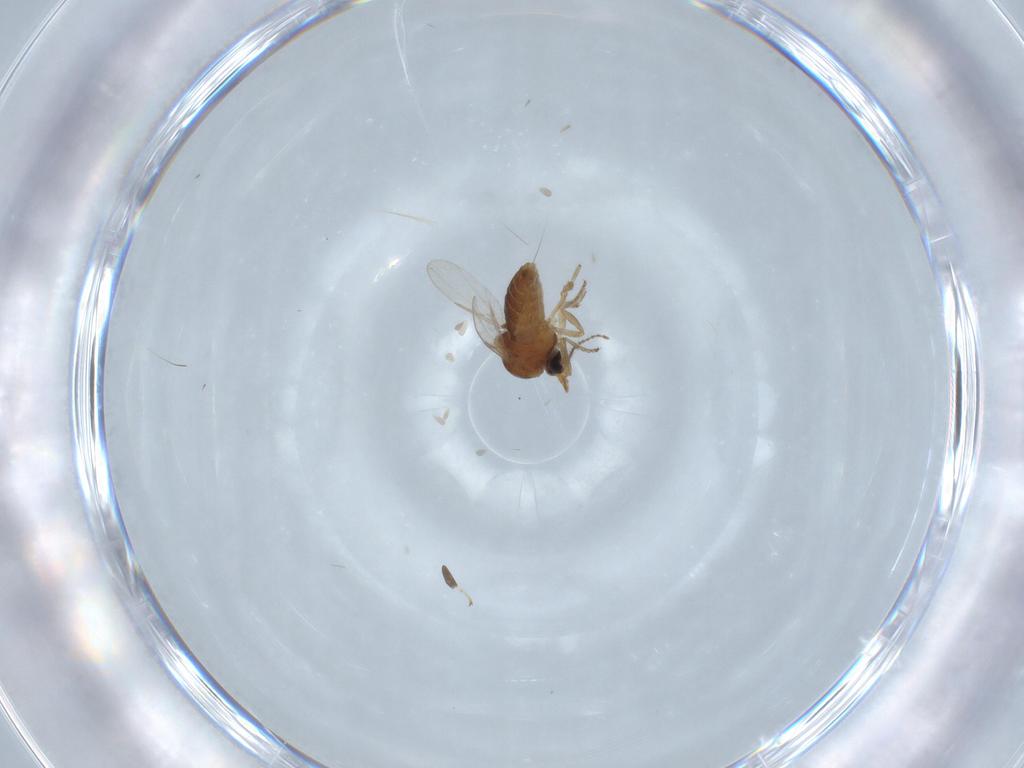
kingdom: Animalia
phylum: Arthropoda
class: Insecta
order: Diptera
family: Ceratopogonidae
